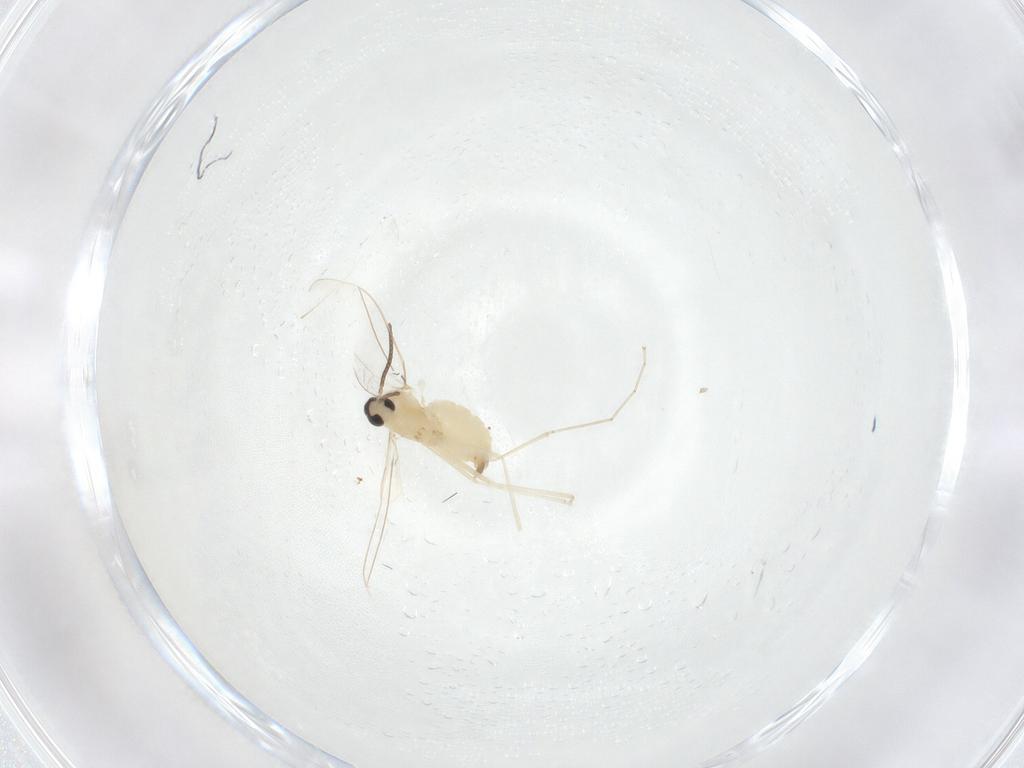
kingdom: Animalia
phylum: Arthropoda
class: Insecta
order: Diptera
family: Cecidomyiidae
